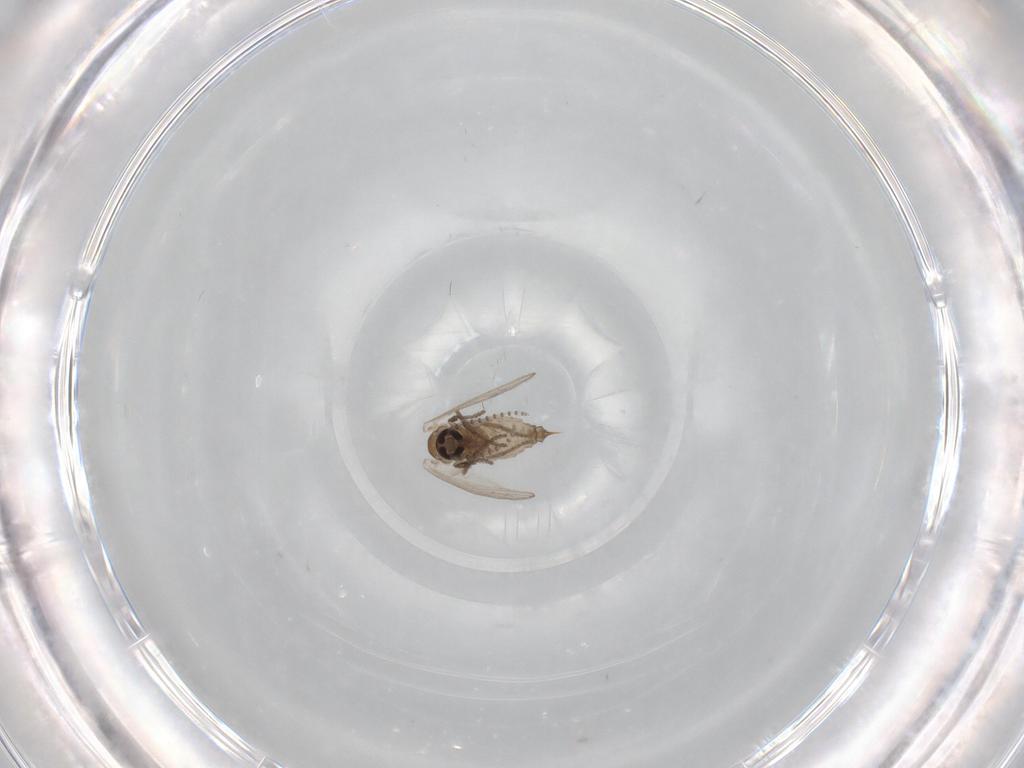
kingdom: Animalia
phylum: Arthropoda
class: Insecta
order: Diptera
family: Psychodidae
